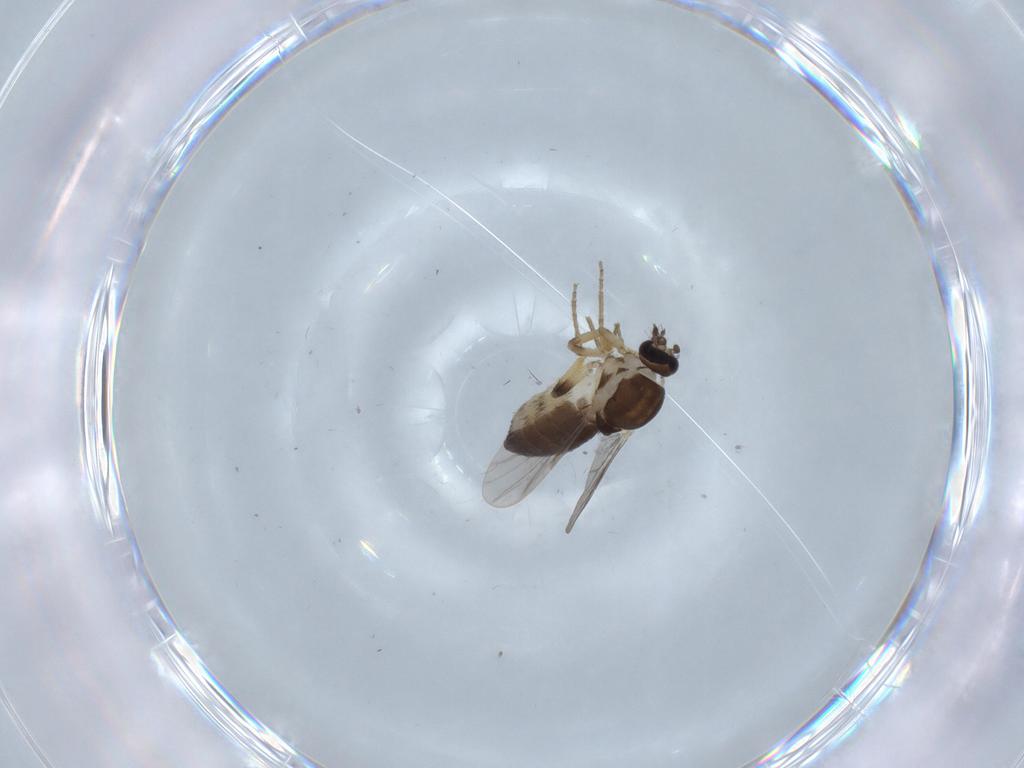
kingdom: Animalia
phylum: Arthropoda
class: Insecta
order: Diptera
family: Ceratopogonidae
